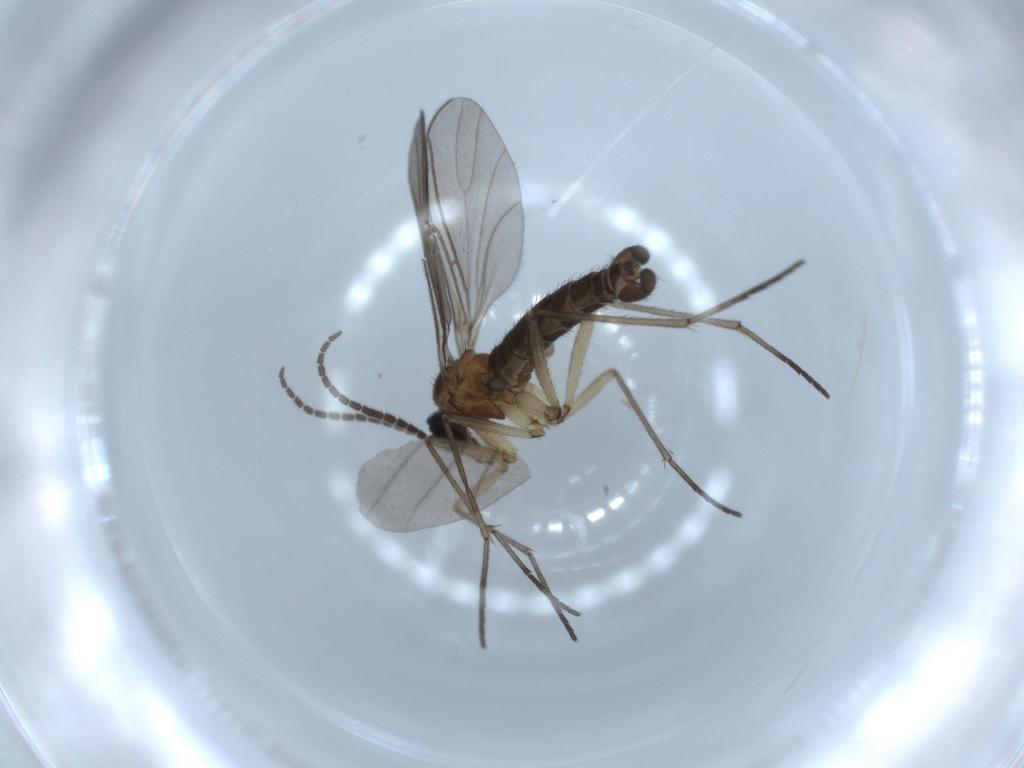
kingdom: Animalia
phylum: Arthropoda
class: Insecta
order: Diptera
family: Sciaridae
